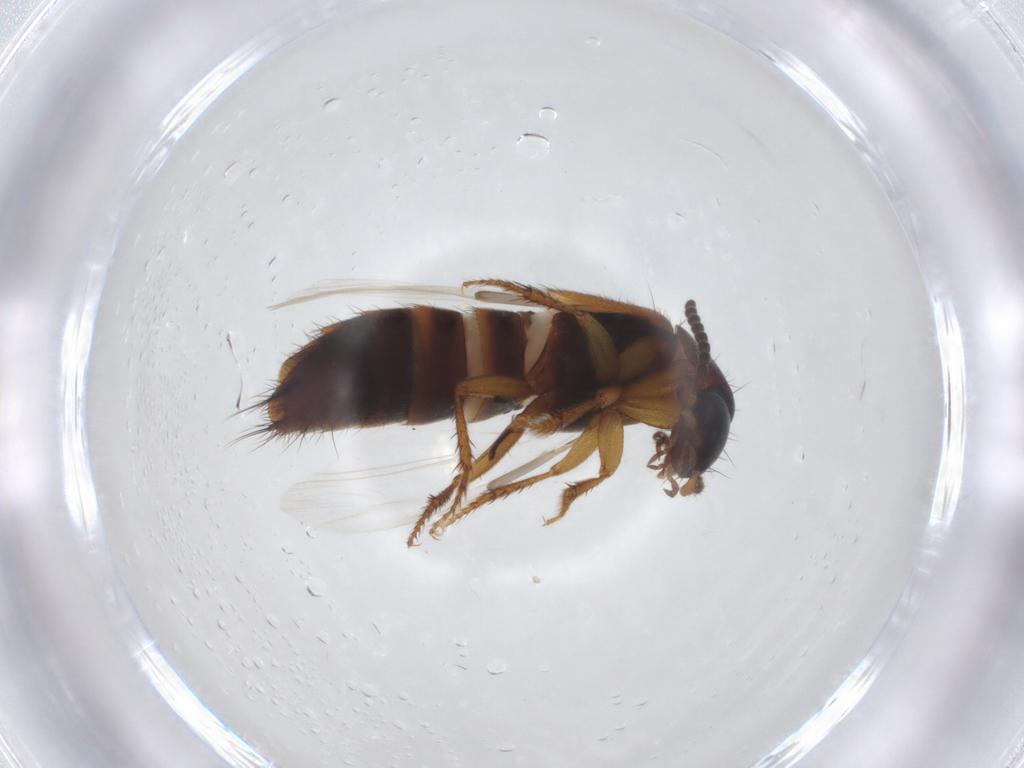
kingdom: Animalia
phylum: Arthropoda
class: Insecta
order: Coleoptera
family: Staphylinidae
